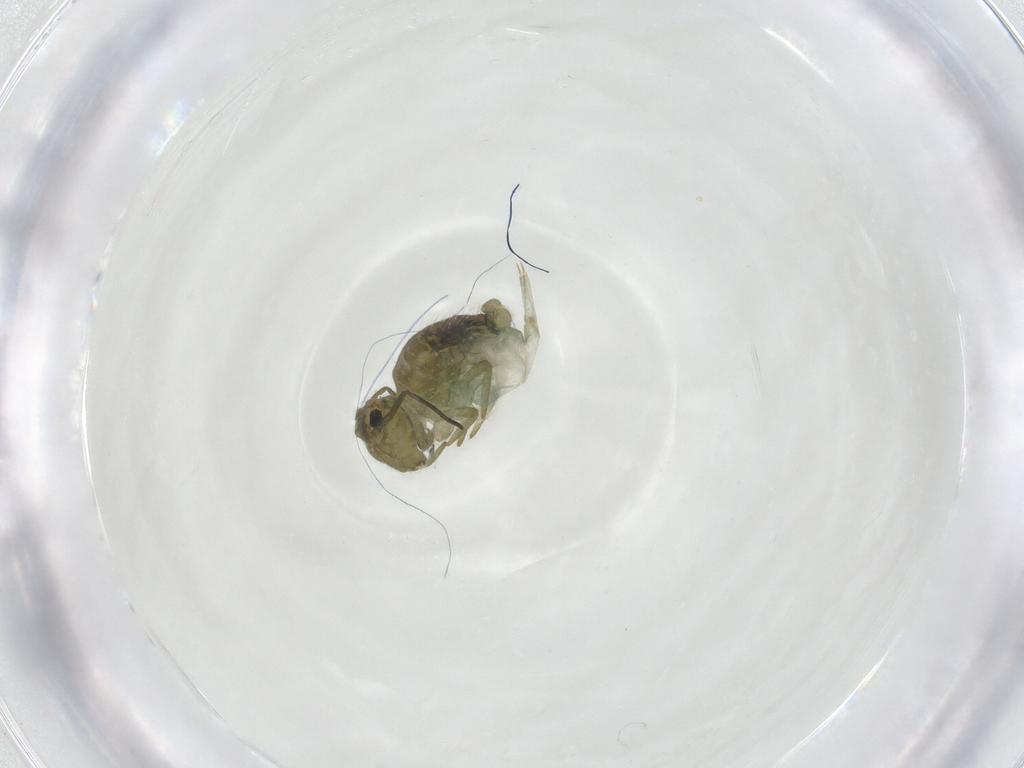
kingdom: Animalia
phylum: Arthropoda
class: Collembola
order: Symphypleona
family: Sminthuridae
